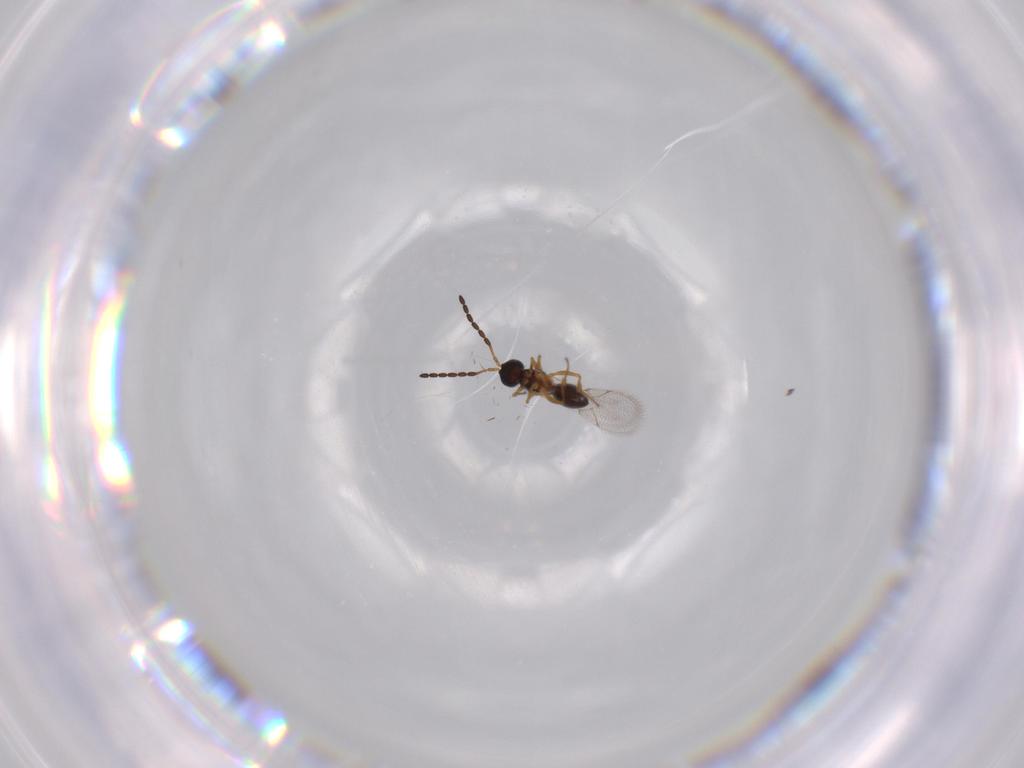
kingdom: Animalia
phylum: Arthropoda
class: Insecta
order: Hymenoptera
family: Figitidae
